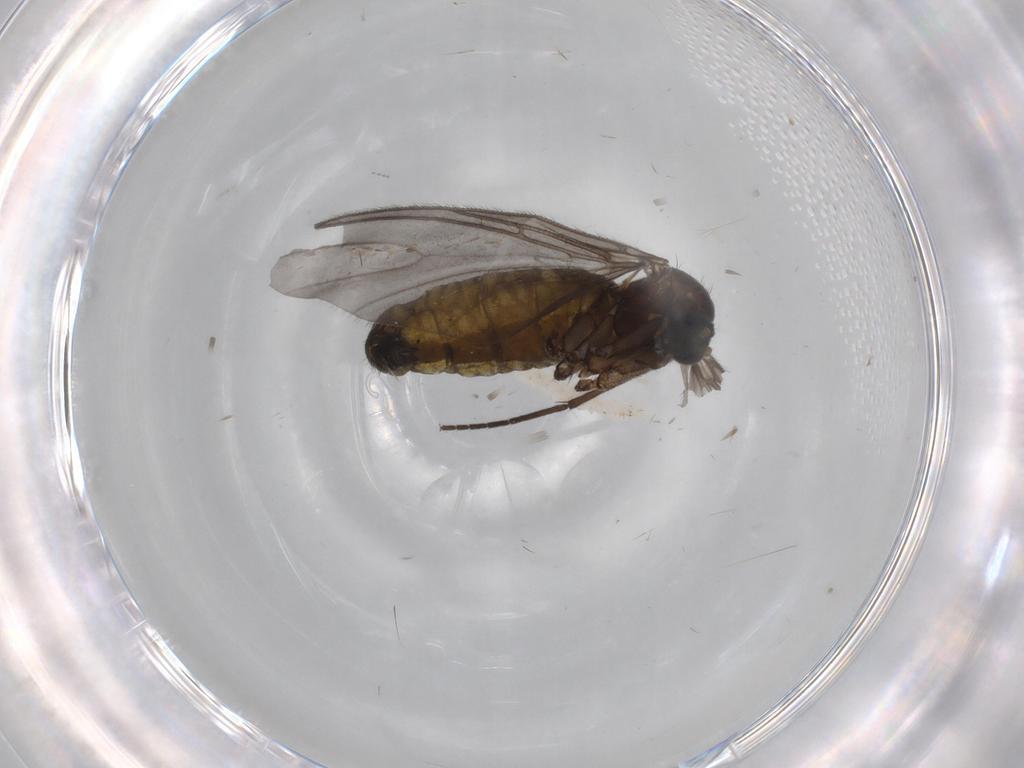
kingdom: Animalia
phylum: Arthropoda
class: Insecta
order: Diptera
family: Sciaridae
